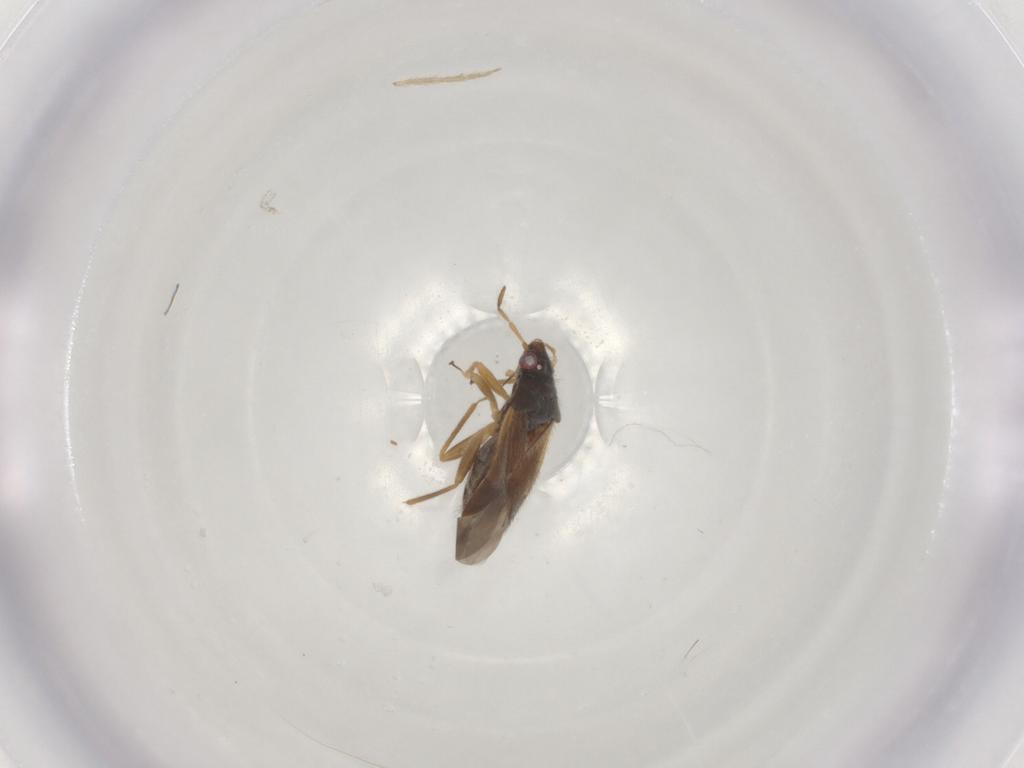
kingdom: Animalia
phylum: Arthropoda
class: Insecta
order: Hemiptera
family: Anthocoridae
